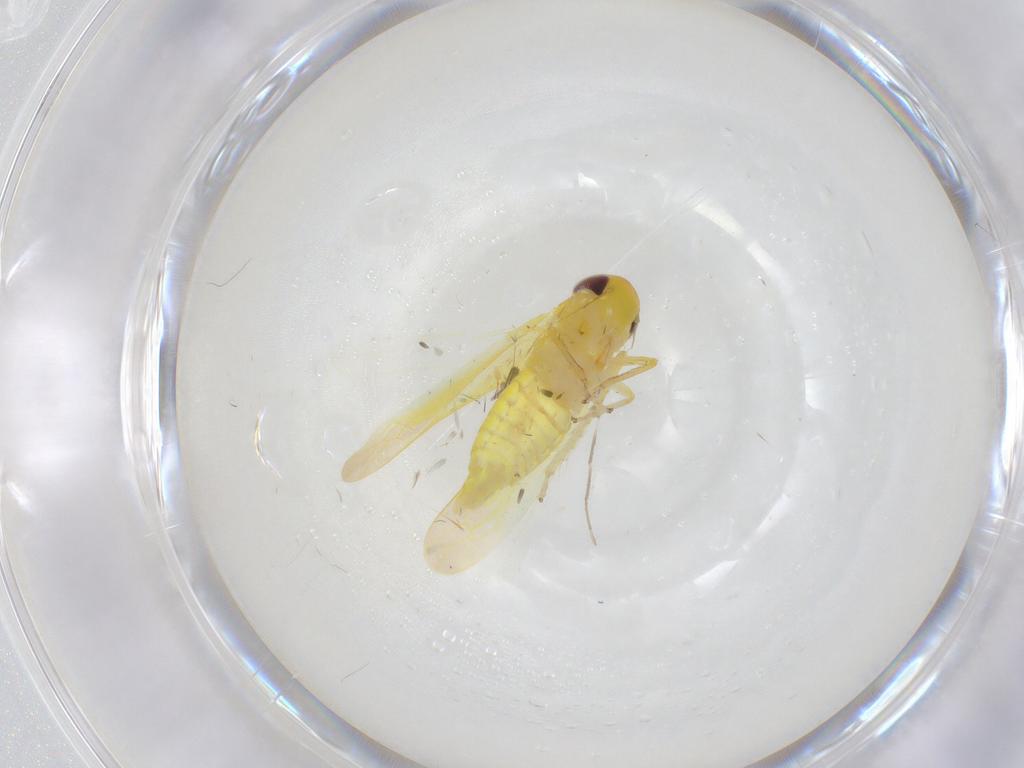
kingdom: Animalia
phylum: Arthropoda
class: Insecta
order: Hemiptera
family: Cicadellidae
